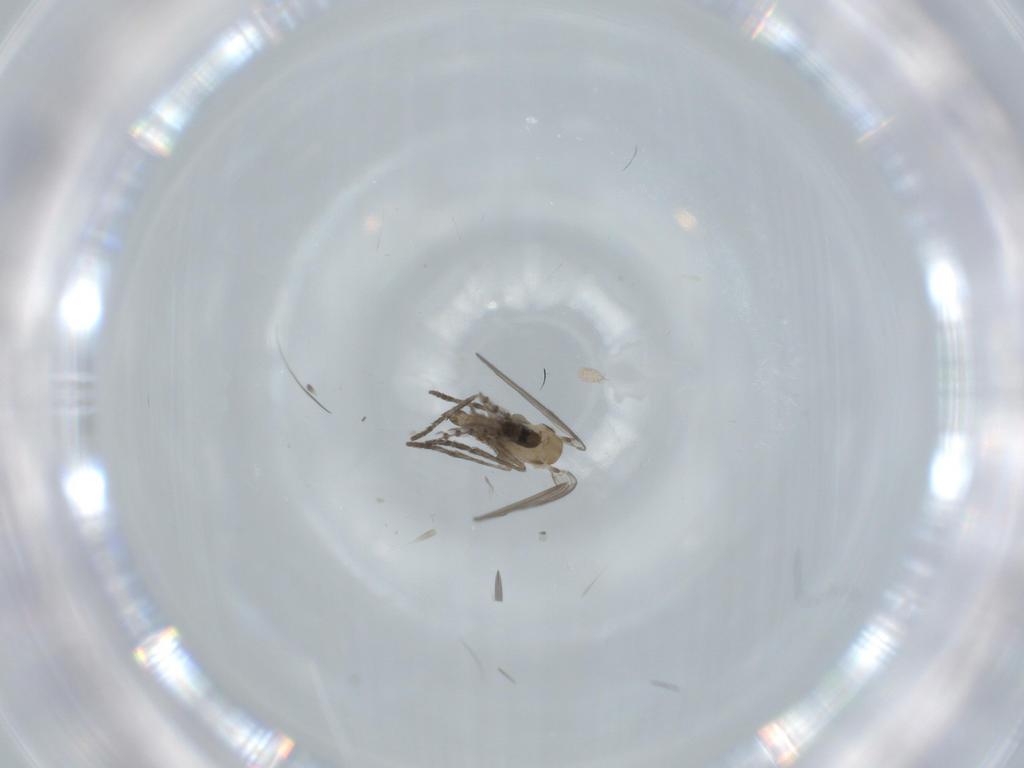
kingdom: Animalia
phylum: Arthropoda
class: Insecta
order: Diptera
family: Psychodidae
